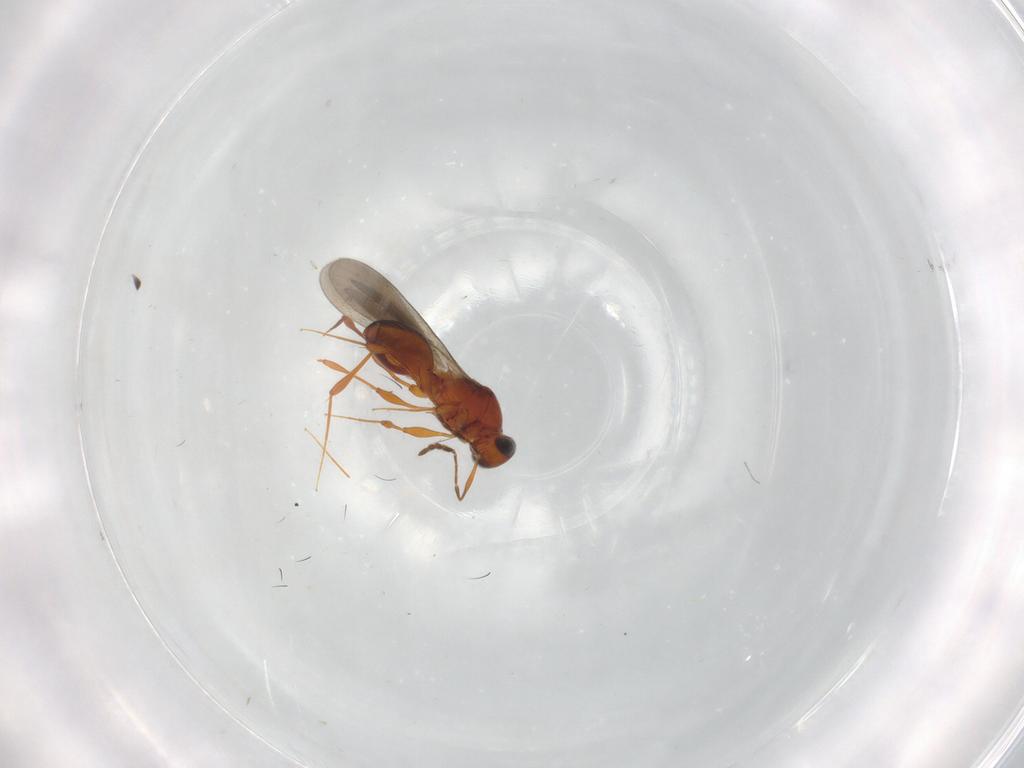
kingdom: Animalia
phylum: Arthropoda
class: Insecta
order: Hymenoptera
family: Platygastridae
